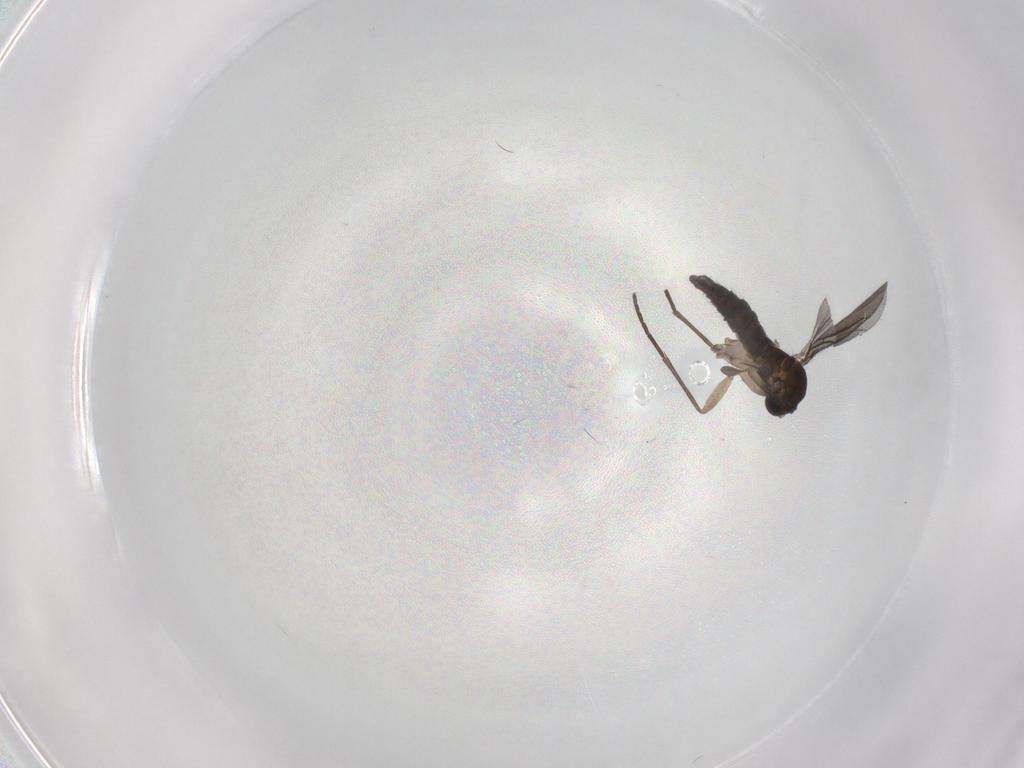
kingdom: Animalia
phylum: Arthropoda
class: Insecta
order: Diptera
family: Sciaridae
